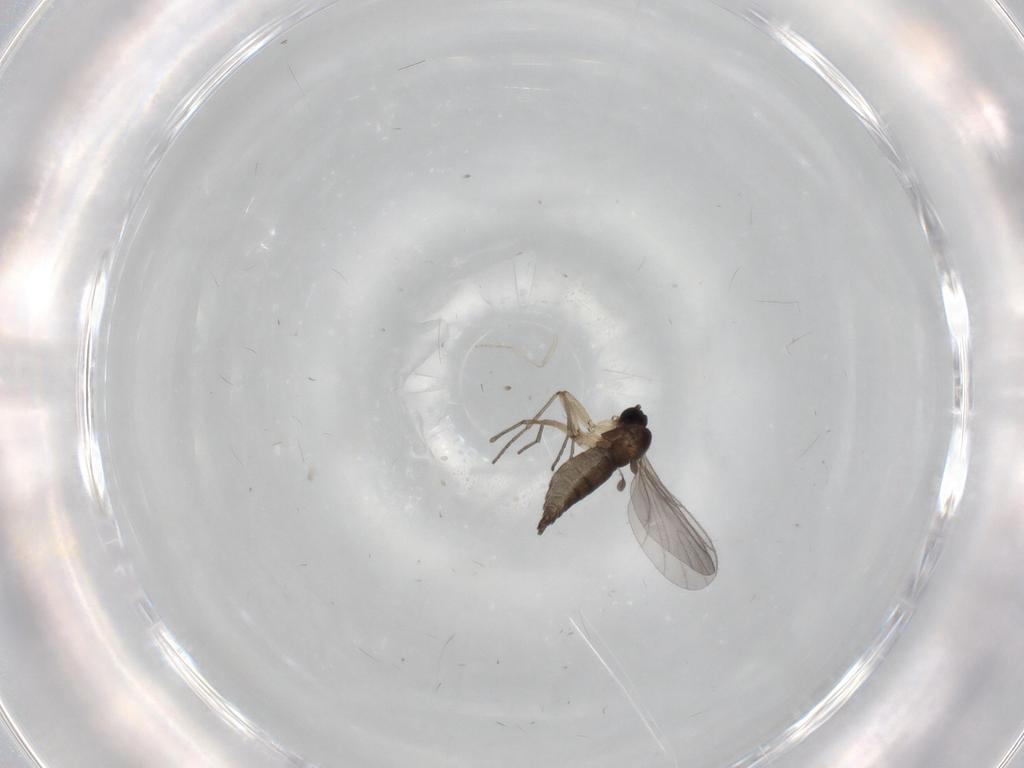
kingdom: Animalia
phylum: Arthropoda
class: Insecta
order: Diptera
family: Sciaridae
